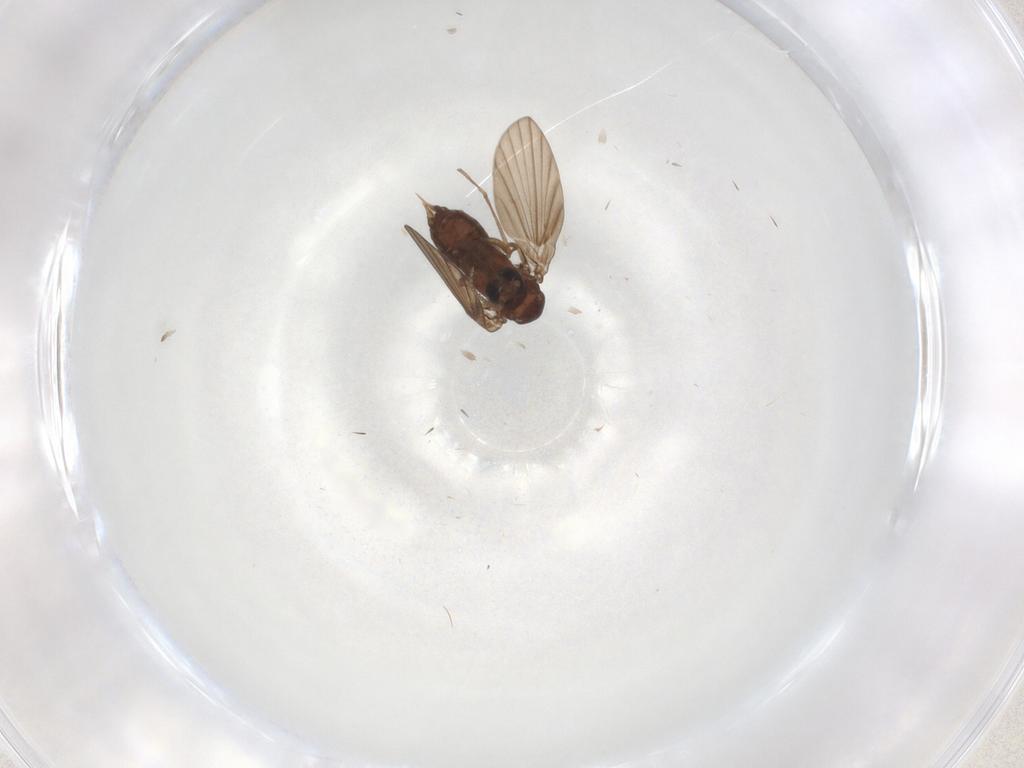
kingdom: Animalia
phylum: Arthropoda
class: Insecta
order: Diptera
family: Psychodidae
